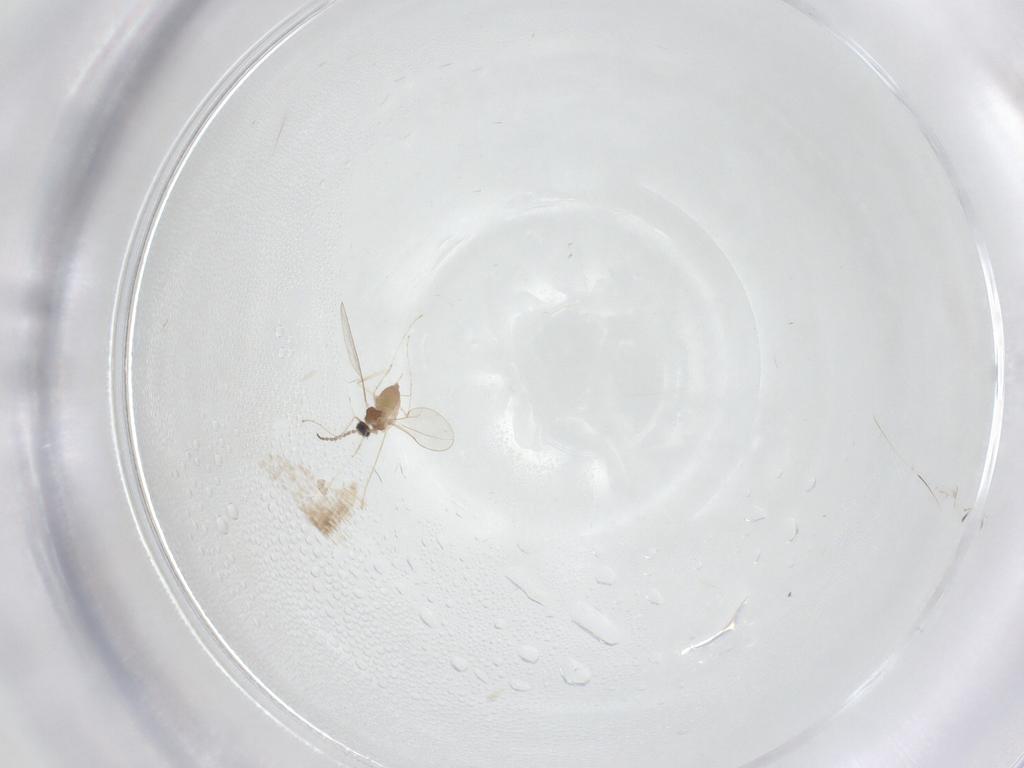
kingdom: Animalia
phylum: Arthropoda
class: Insecta
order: Diptera
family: Cecidomyiidae
